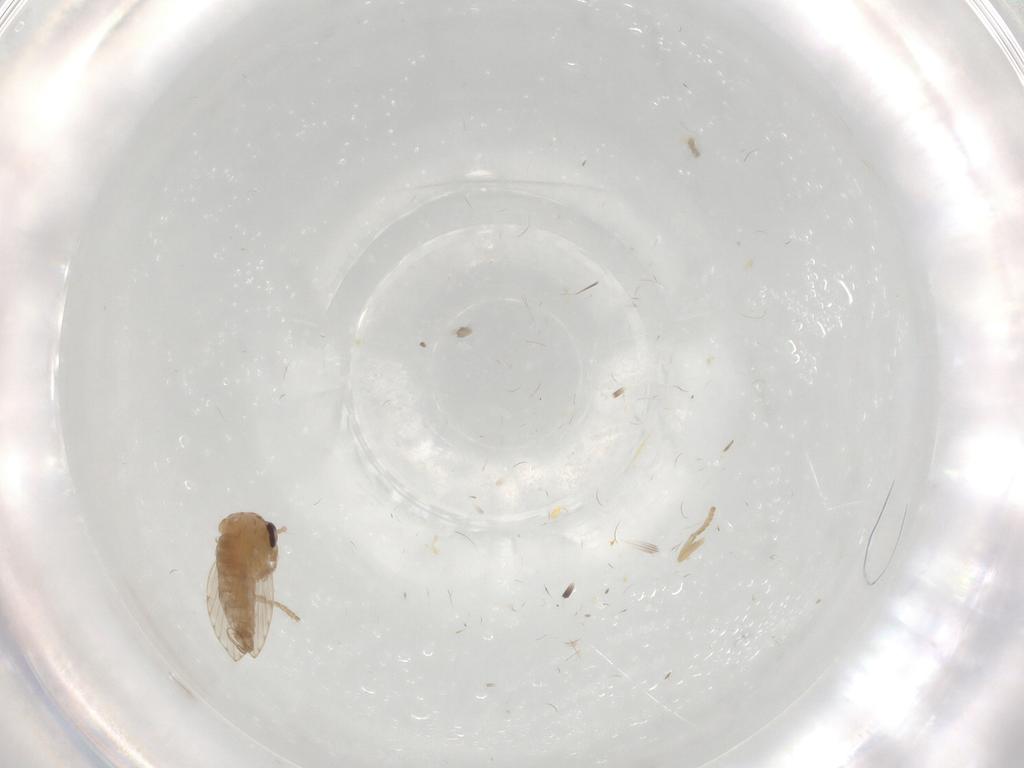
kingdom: Animalia
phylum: Arthropoda
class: Insecta
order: Diptera
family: Psychodidae
